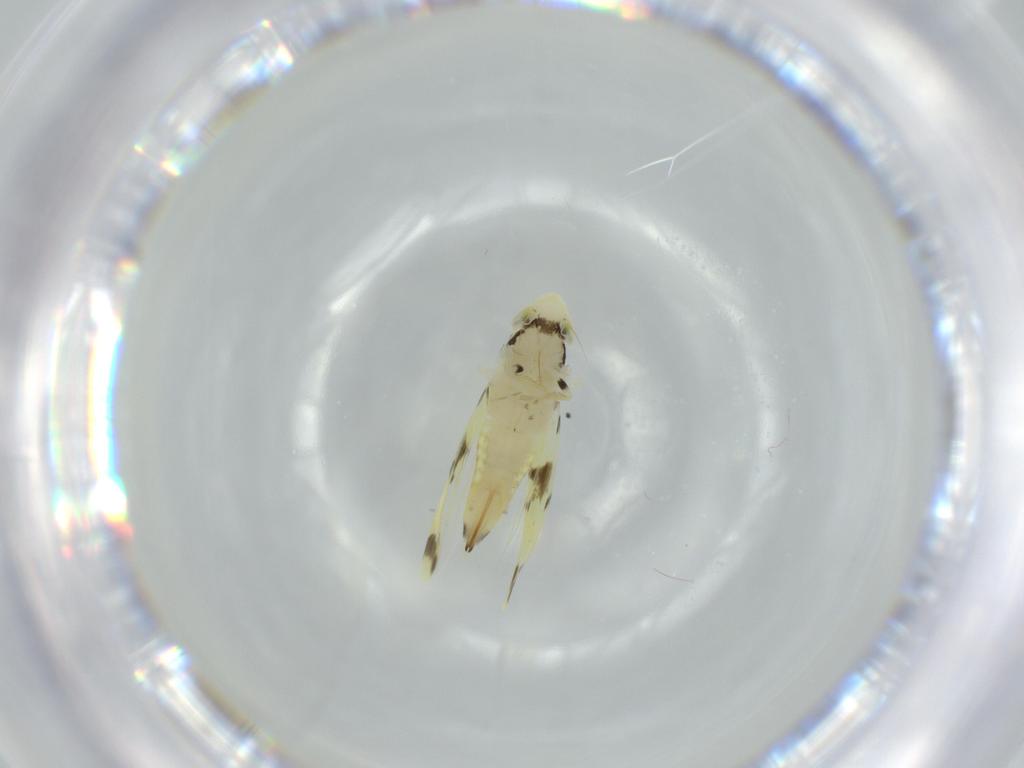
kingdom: Animalia
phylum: Arthropoda
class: Insecta
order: Hemiptera
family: Cicadellidae
